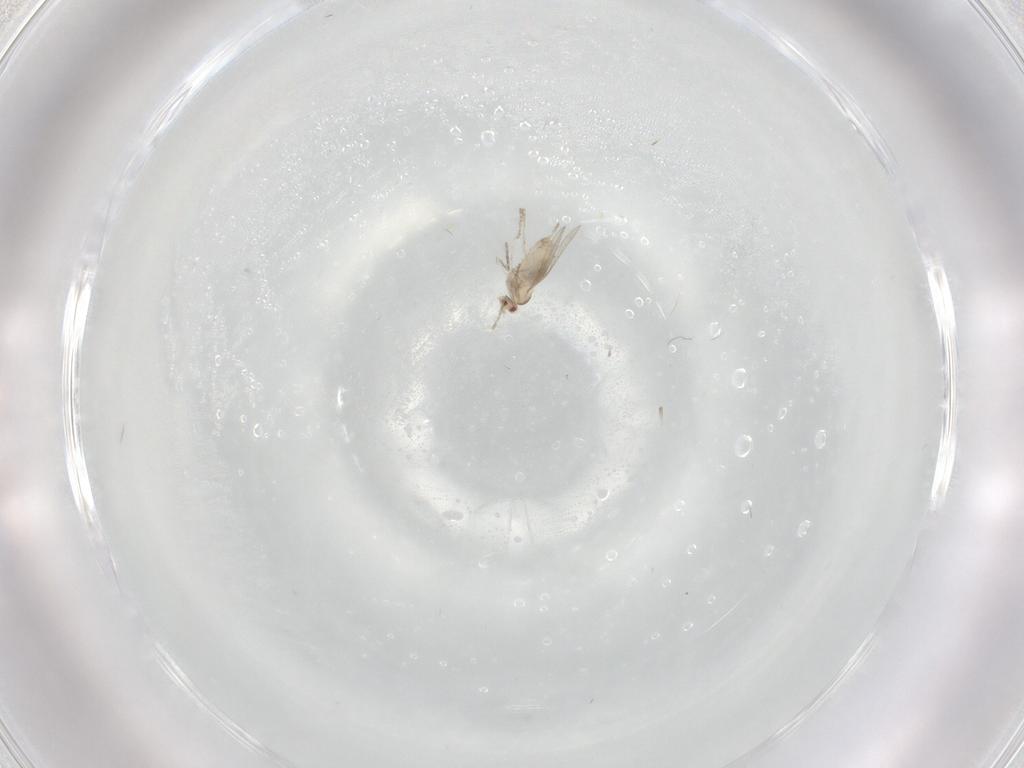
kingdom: Animalia
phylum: Arthropoda
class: Insecta
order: Diptera
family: Cecidomyiidae
